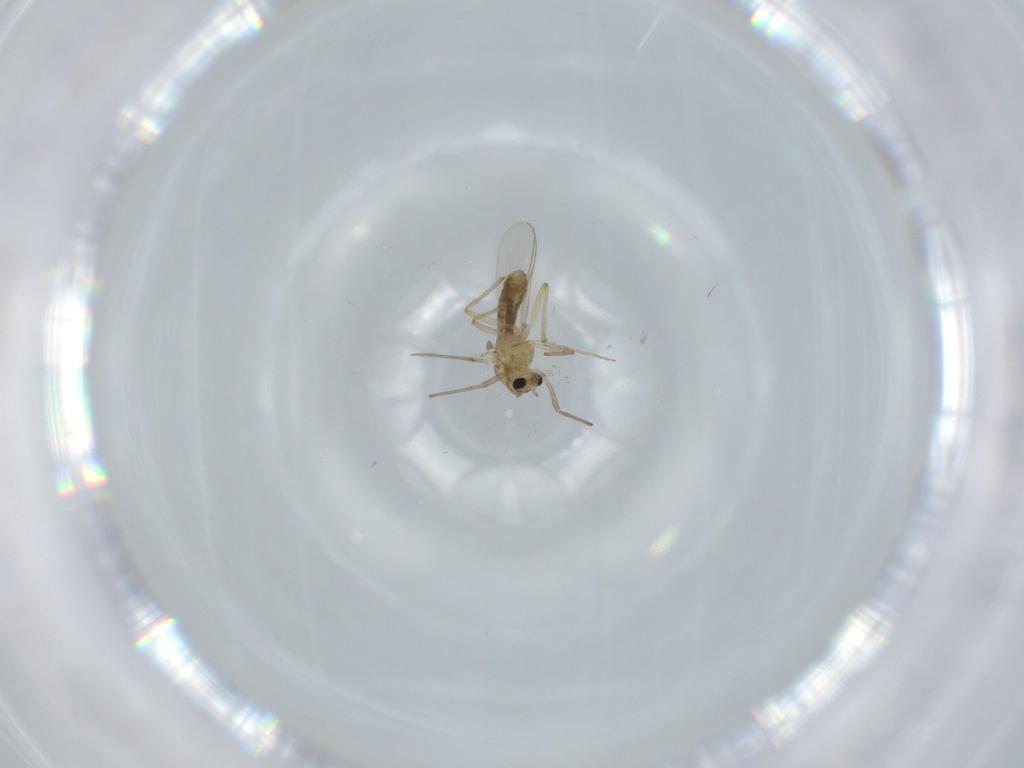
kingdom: Animalia
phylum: Arthropoda
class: Insecta
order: Diptera
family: Chironomidae
